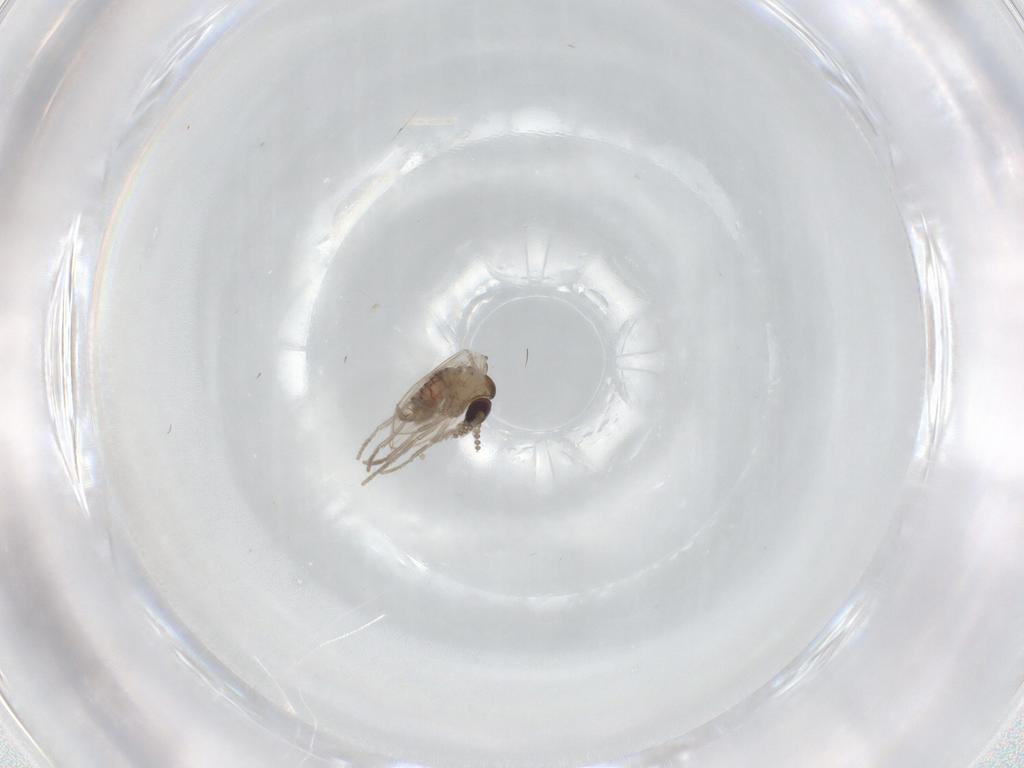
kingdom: Animalia
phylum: Arthropoda
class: Insecta
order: Diptera
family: Psychodidae
